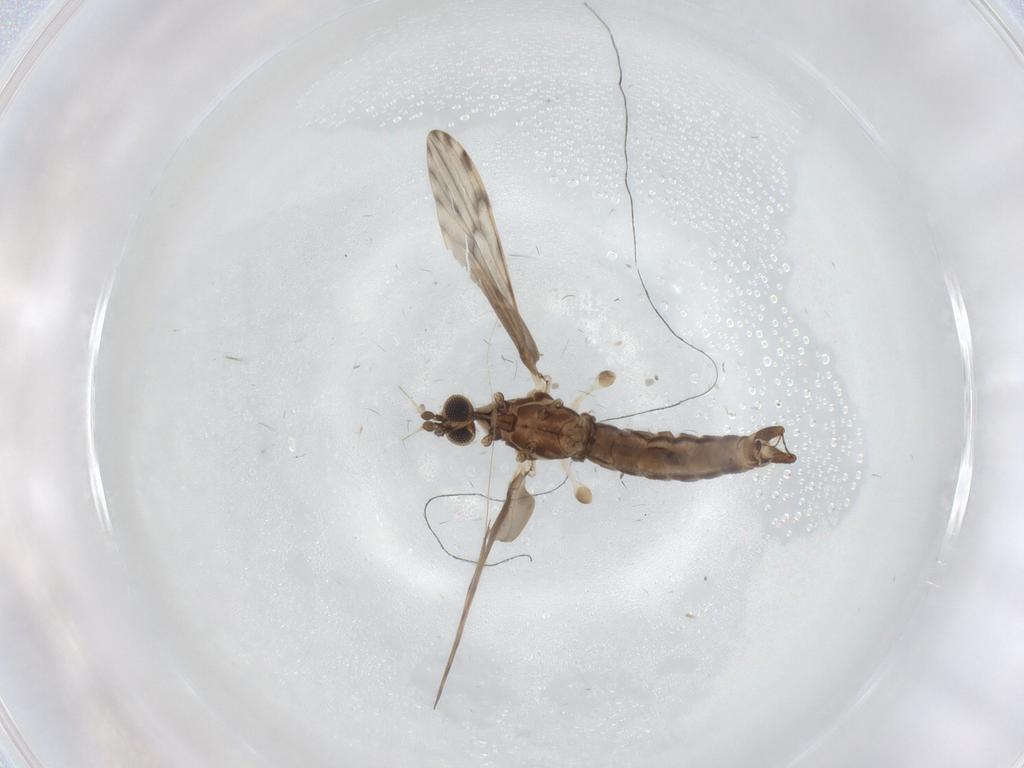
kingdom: Animalia
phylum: Arthropoda
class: Insecta
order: Diptera
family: Limoniidae
